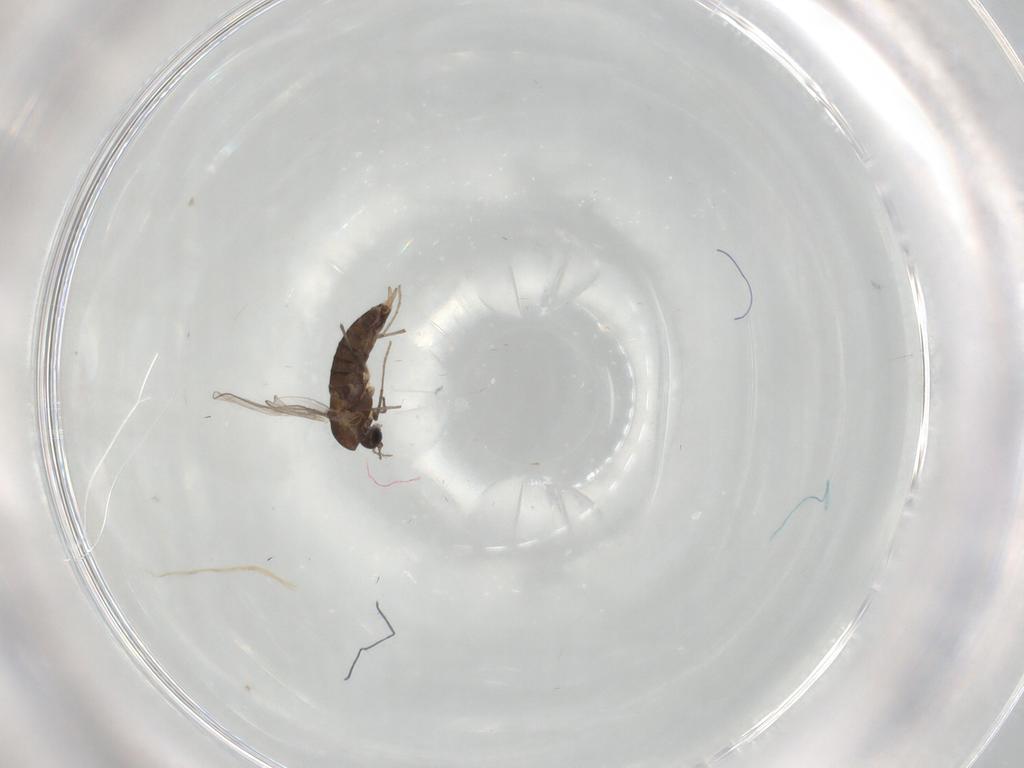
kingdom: Animalia
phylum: Arthropoda
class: Insecta
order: Diptera
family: Chironomidae
